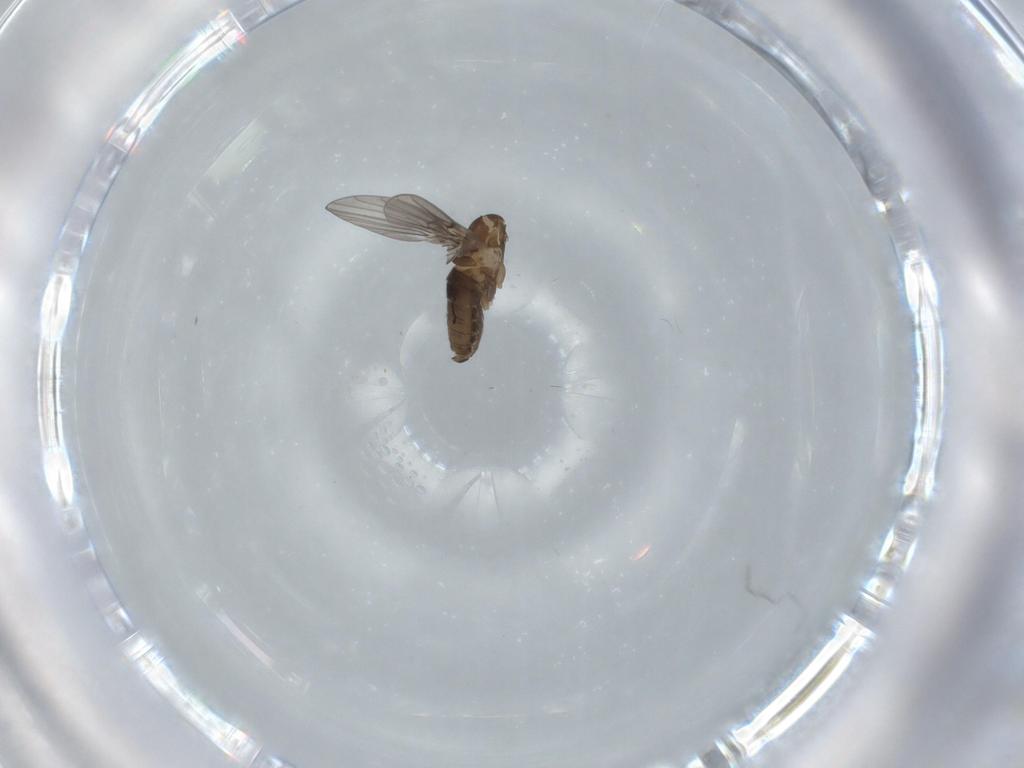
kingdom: Animalia
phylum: Arthropoda
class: Insecta
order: Diptera
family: Psychodidae
